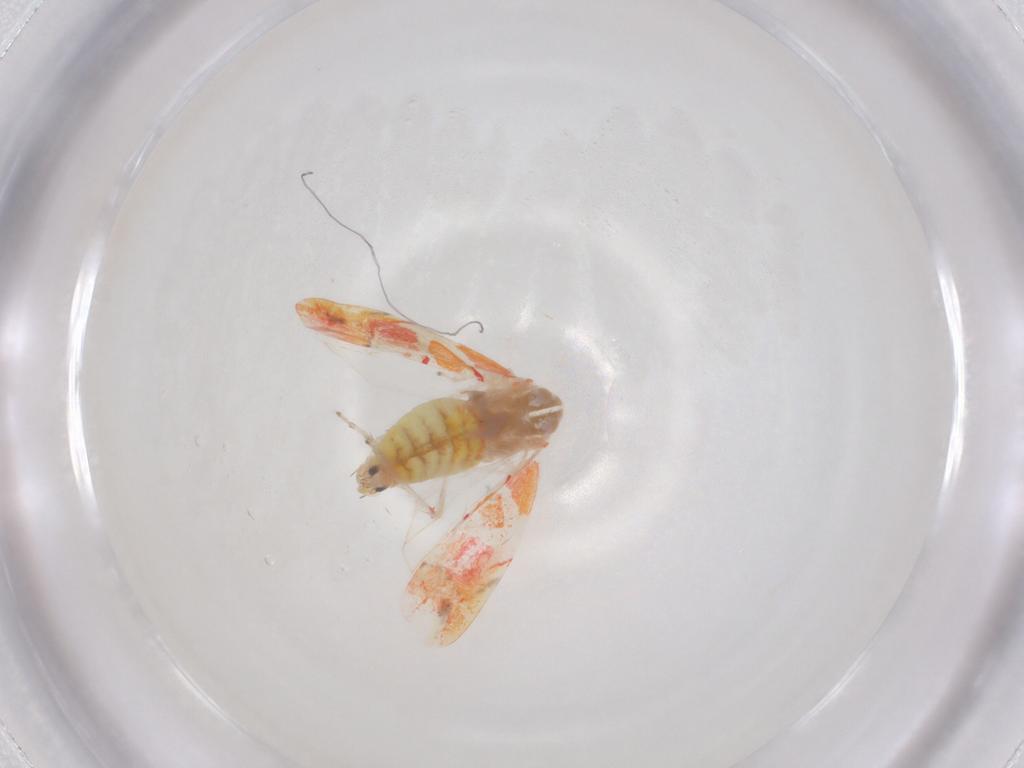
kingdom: Animalia
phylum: Arthropoda
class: Insecta
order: Hemiptera
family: Cicadellidae
